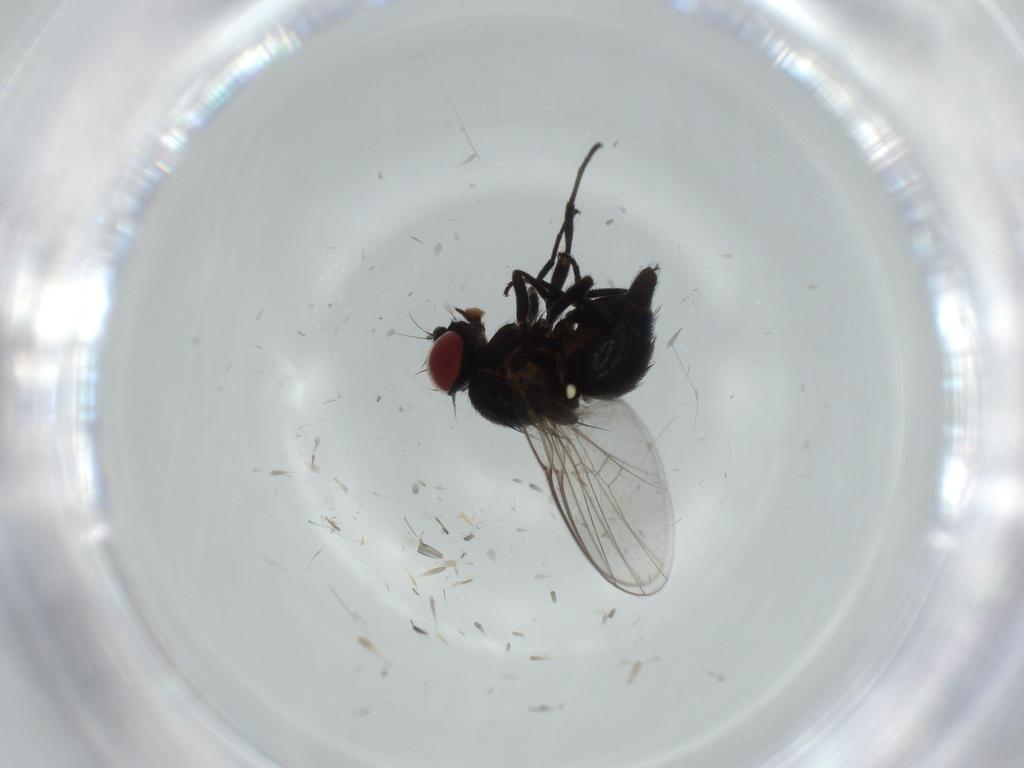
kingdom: Animalia
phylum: Arthropoda
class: Insecta
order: Diptera
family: Agromyzidae
